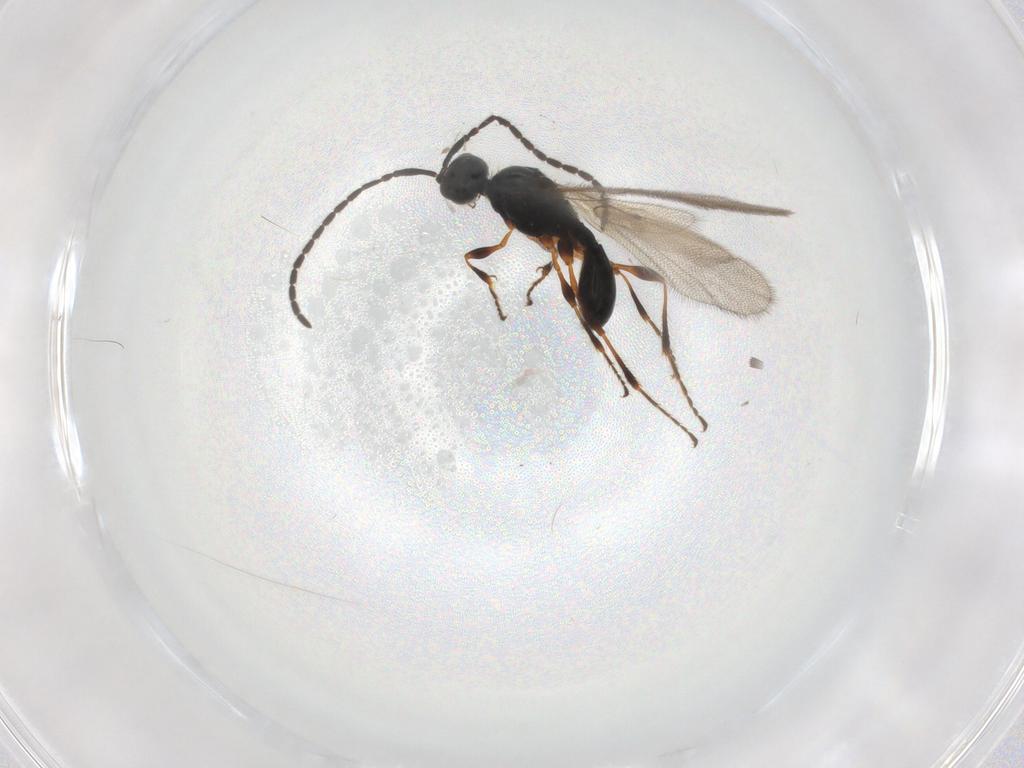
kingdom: Animalia
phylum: Arthropoda
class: Insecta
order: Hymenoptera
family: Diapriidae
